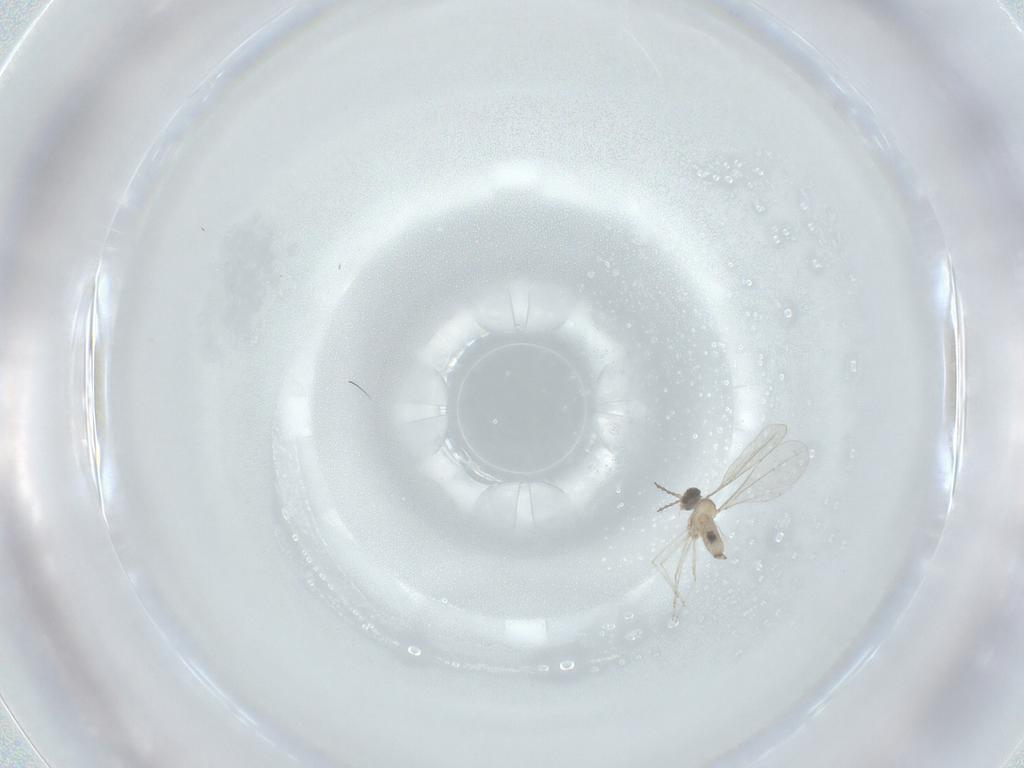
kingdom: Animalia
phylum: Arthropoda
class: Insecta
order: Diptera
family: Cecidomyiidae
